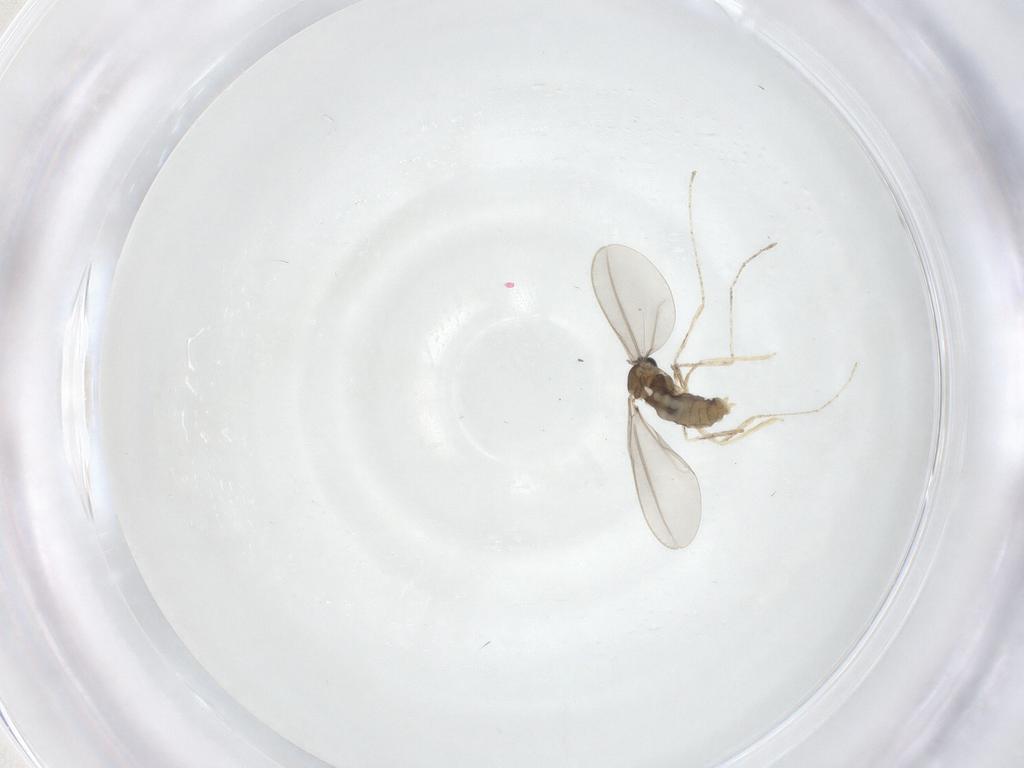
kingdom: Animalia
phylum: Arthropoda
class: Insecta
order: Diptera
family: Cecidomyiidae
